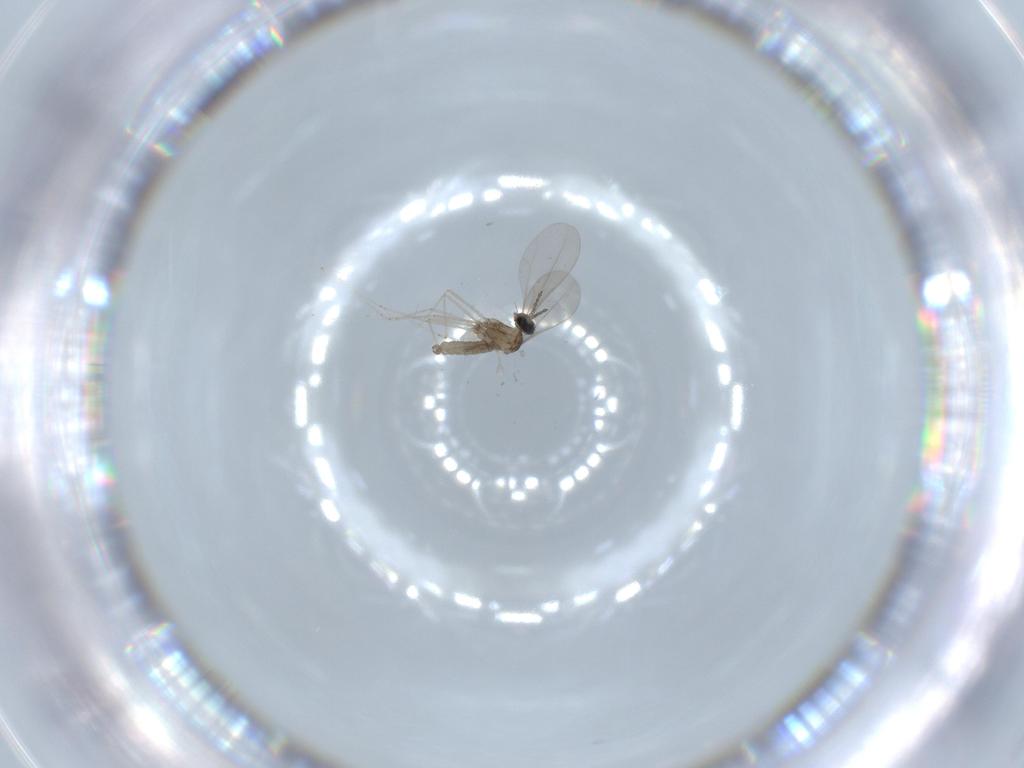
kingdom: Animalia
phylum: Arthropoda
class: Insecta
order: Diptera
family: Cecidomyiidae
